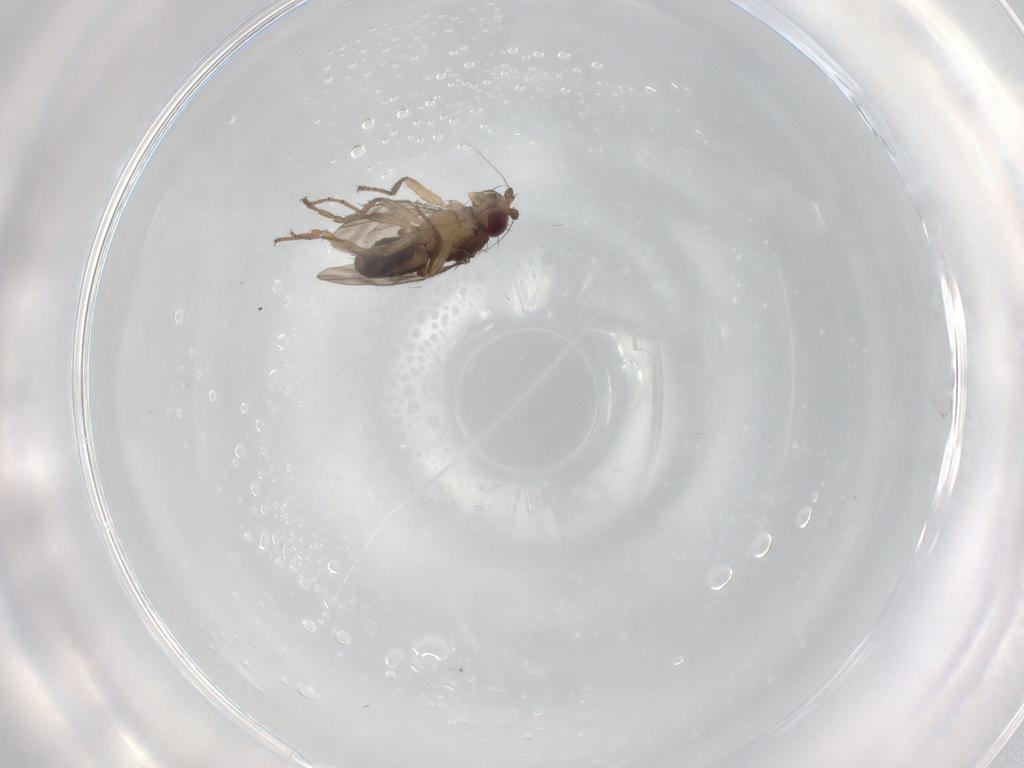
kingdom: Animalia
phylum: Arthropoda
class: Insecta
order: Diptera
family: Sphaeroceridae
